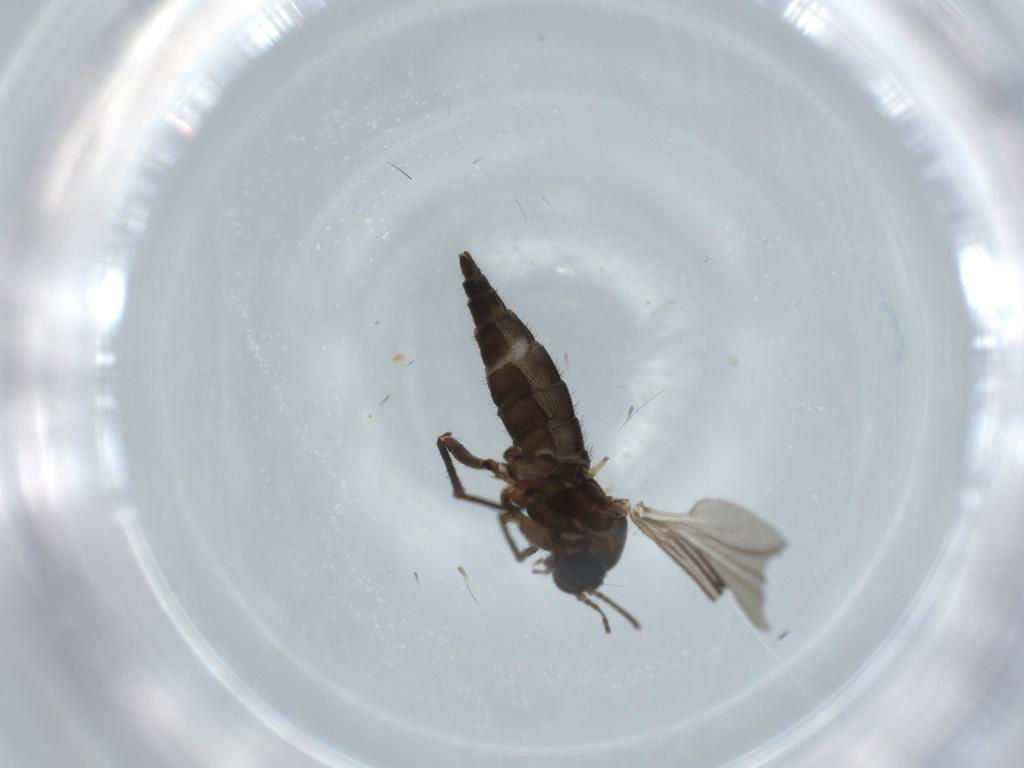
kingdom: Animalia
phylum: Arthropoda
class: Insecta
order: Diptera
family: Sciaridae
